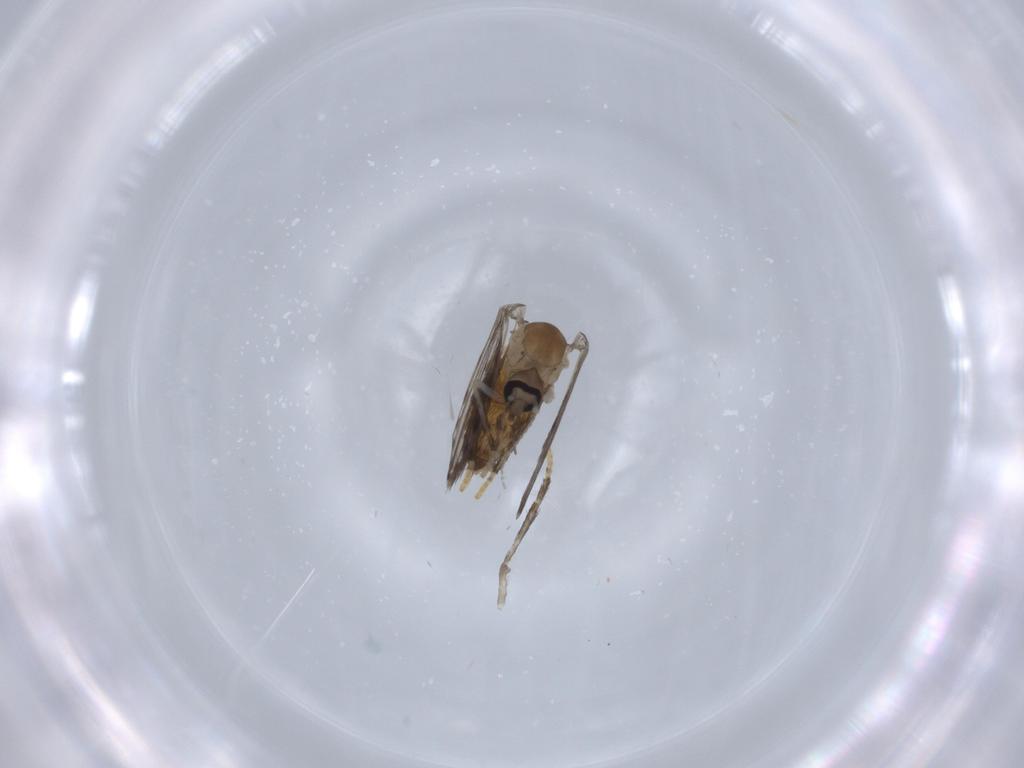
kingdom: Animalia
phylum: Arthropoda
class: Insecta
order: Diptera
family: Psychodidae
